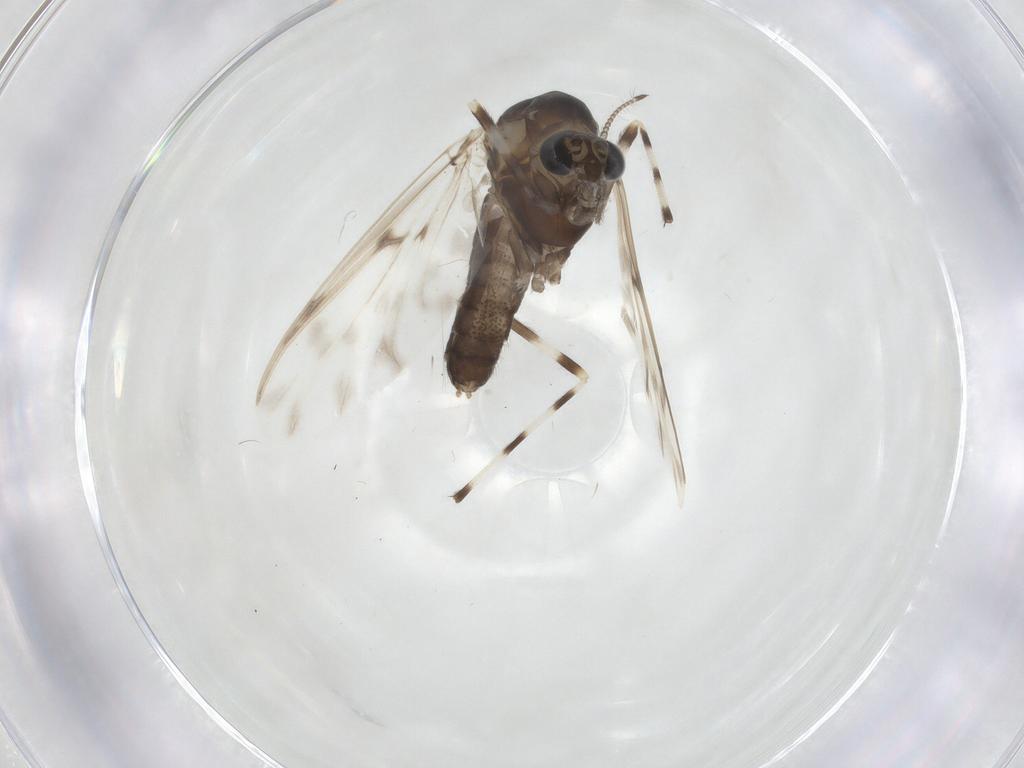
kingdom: Animalia
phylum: Arthropoda
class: Insecta
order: Diptera
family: Chironomidae
